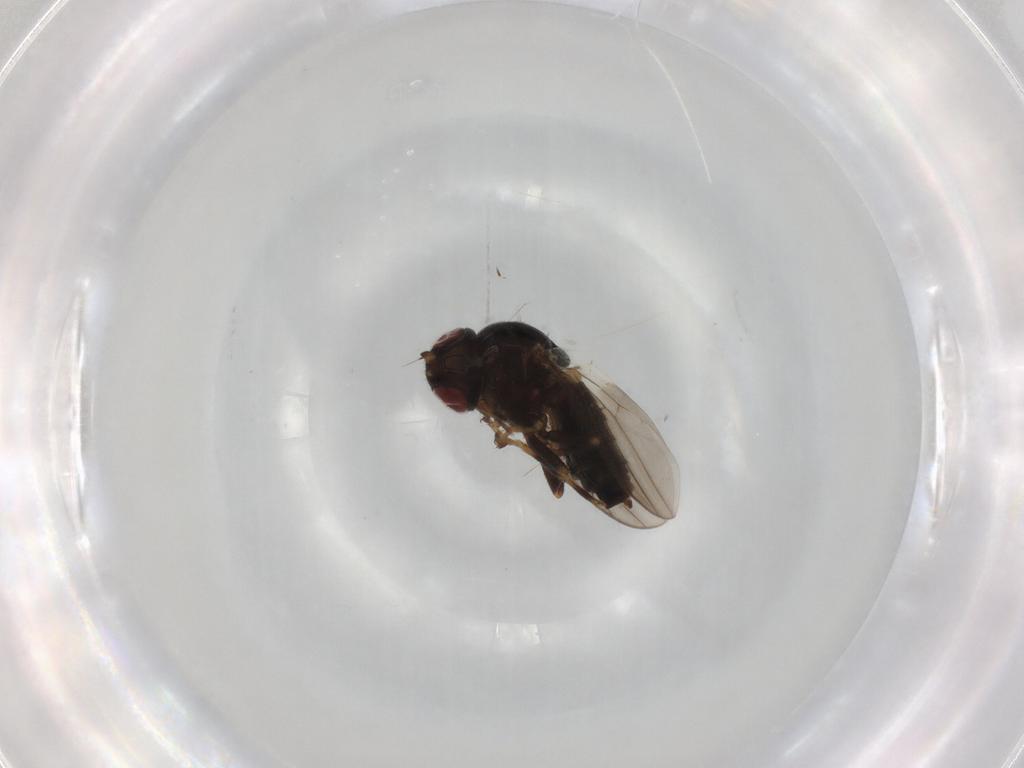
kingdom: Animalia
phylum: Arthropoda
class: Insecta
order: Diptera
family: Chloropidae
